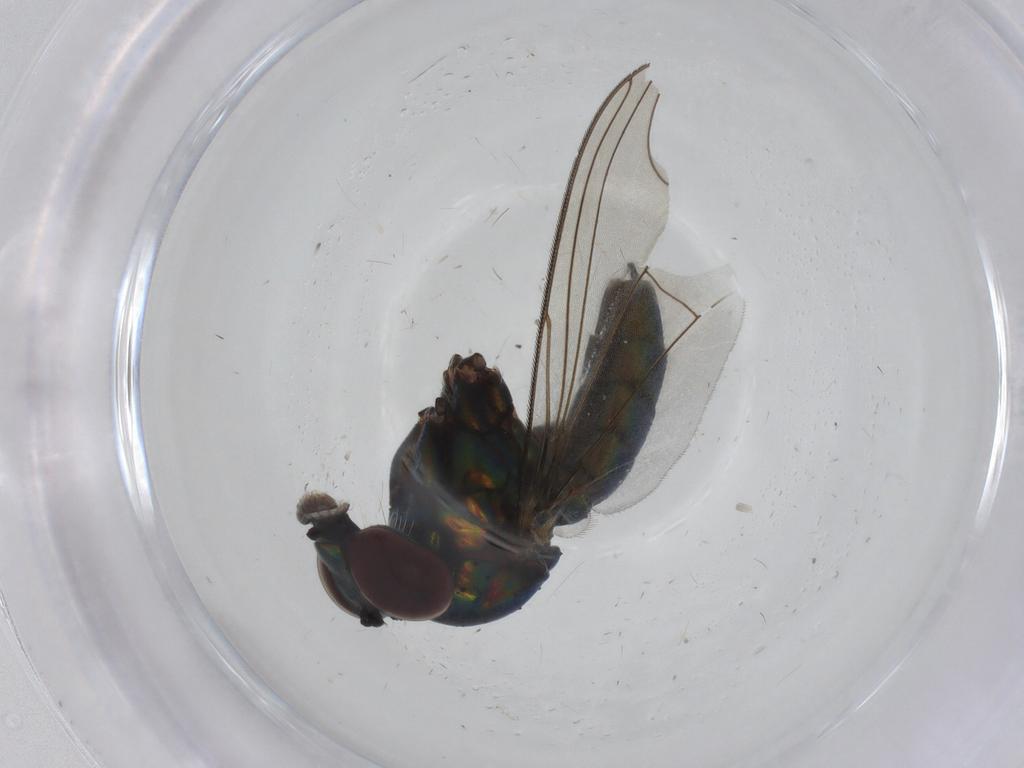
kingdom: Animalia
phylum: Arthropoda
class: Insecta
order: Diptera
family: Dolichopodidae
